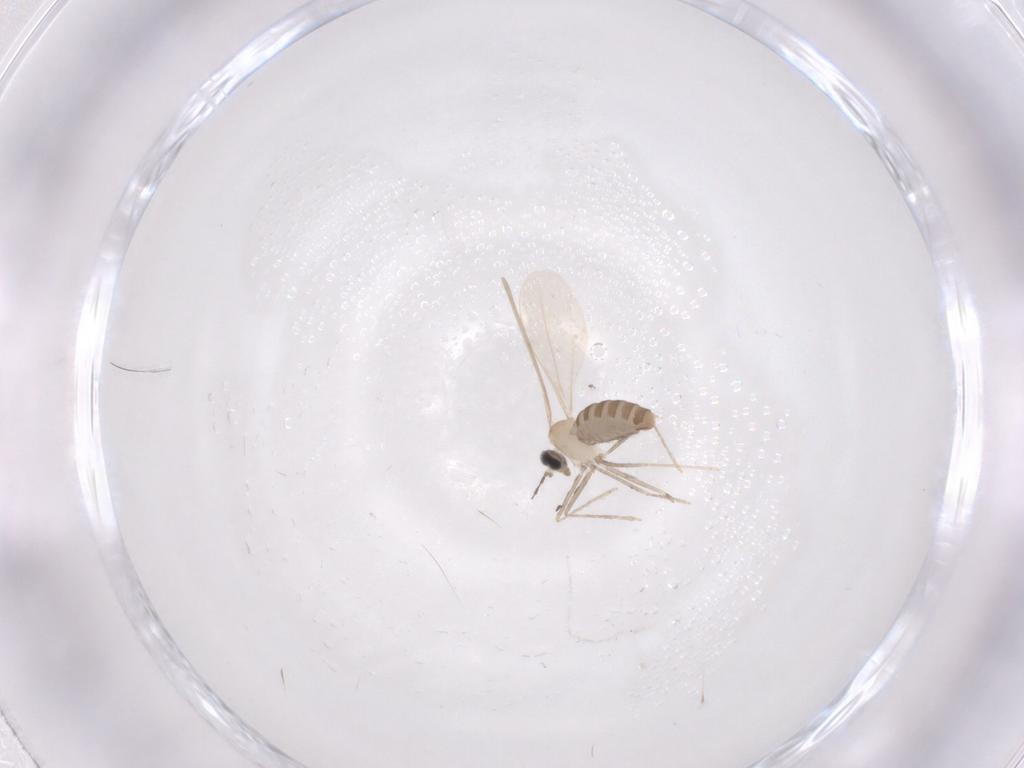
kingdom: Animalia
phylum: Arthropoda
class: Insecta
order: Diptera
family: Cecidomyiidae
